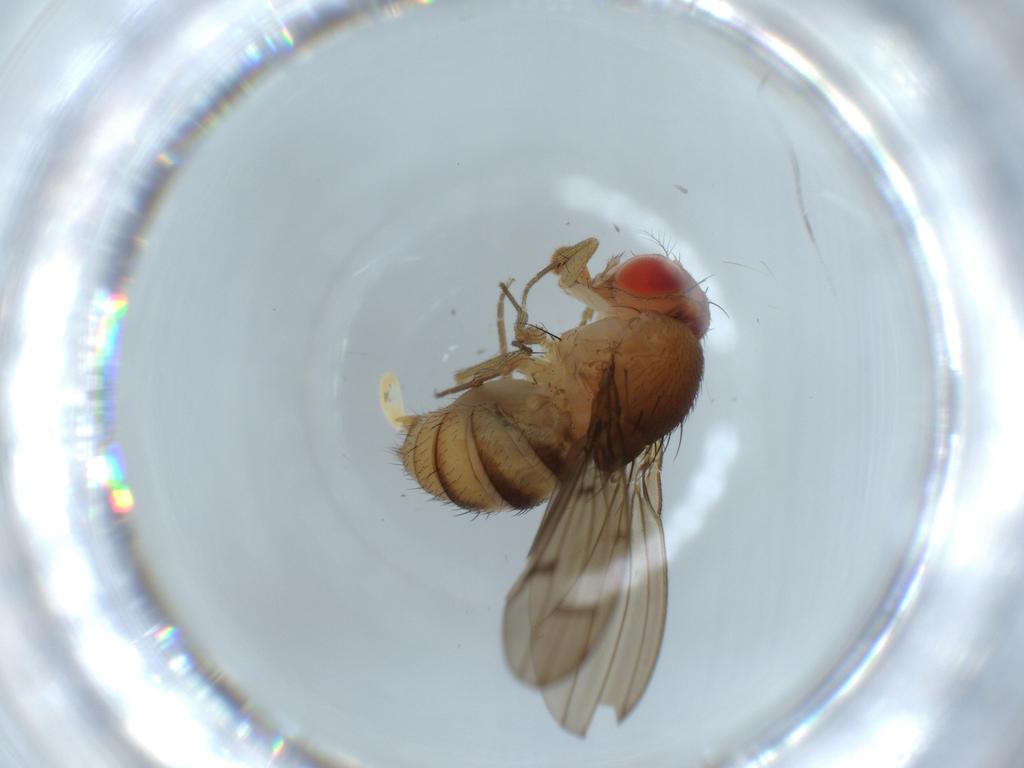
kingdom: Animalia
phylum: Arthropoda
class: Insecta
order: Diptera
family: Drosophilidae
